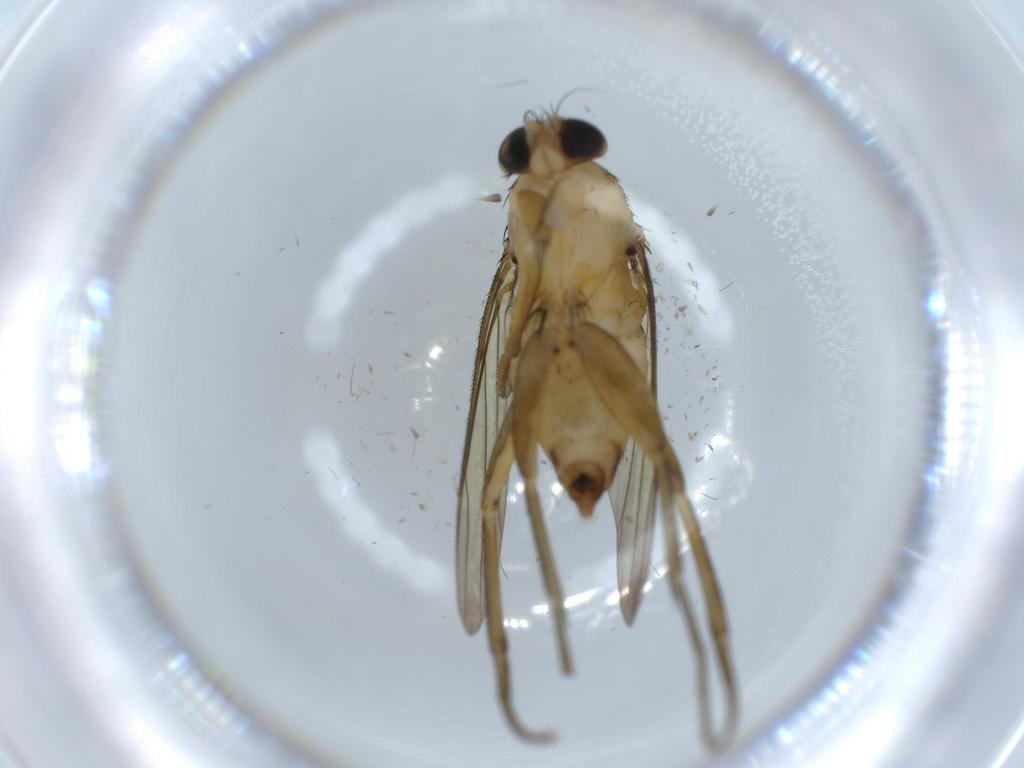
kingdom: Animalia
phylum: Arthropoda
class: Insecta
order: Diptera
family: Phoridae
